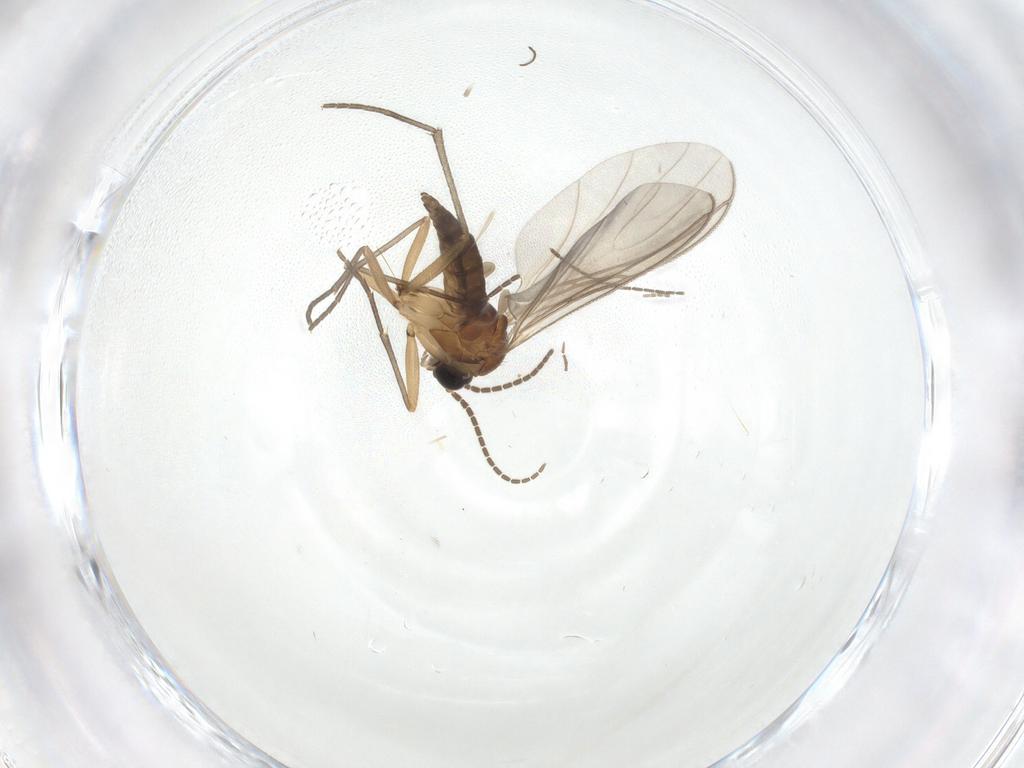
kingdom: Animalia
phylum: Arthropoda
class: Insecta
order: Diptera
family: Sciaridae
